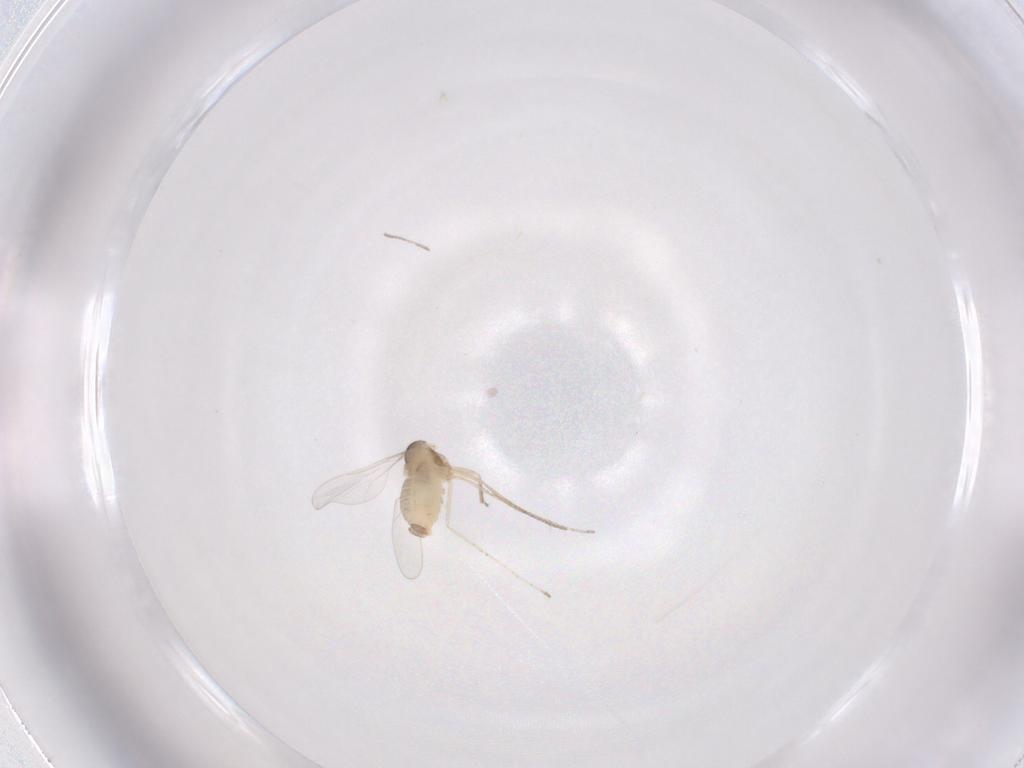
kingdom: Animalia
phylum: Arthropoda
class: Insecta
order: Diptera
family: Cecidomyiidae
